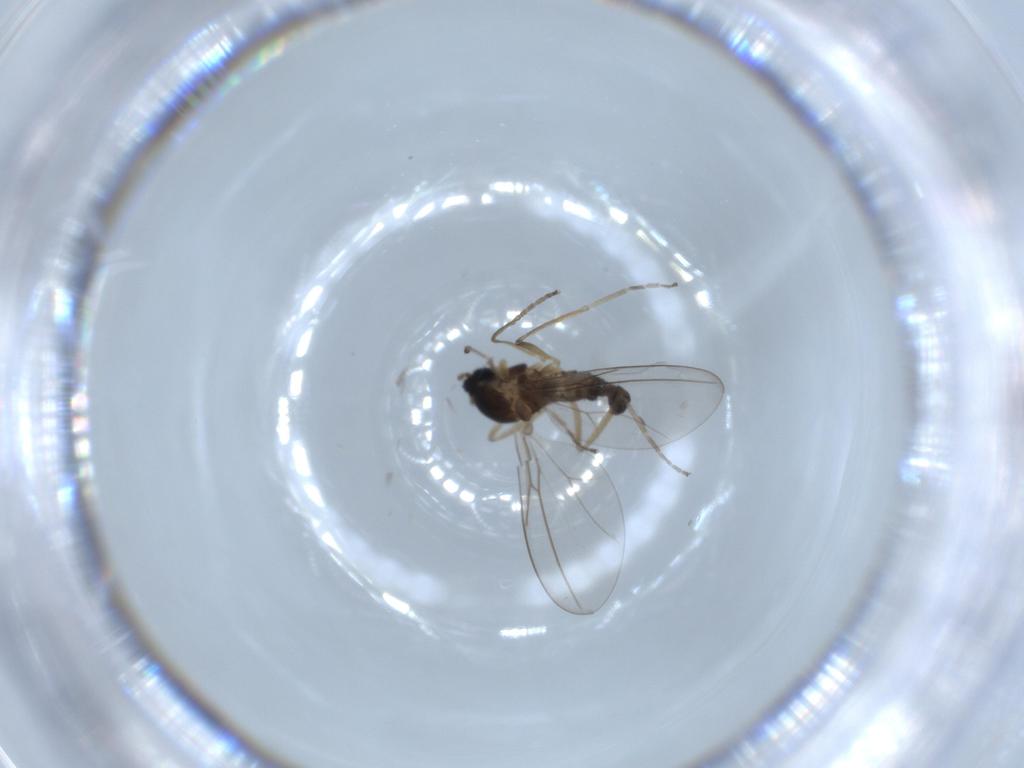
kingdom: Animalia
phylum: Arthropoda
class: Insecta
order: Diptera
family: Cecidomyiidae
